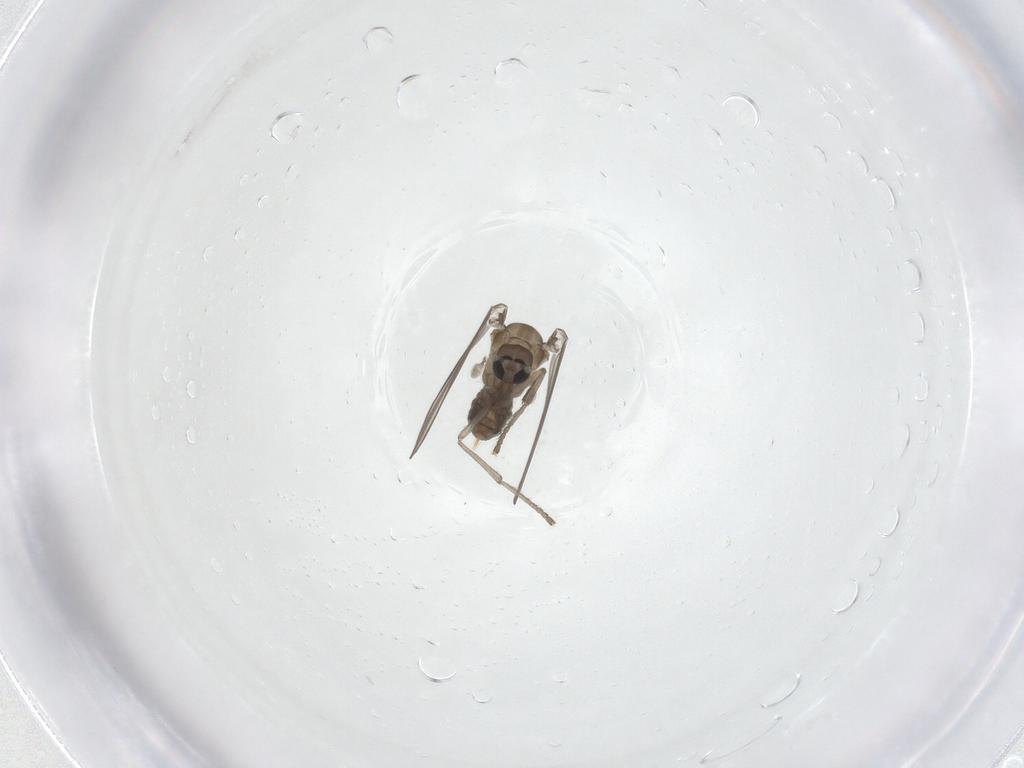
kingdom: Animalia
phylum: Arthropoda
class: Insecta
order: Diptera
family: Psychodidae
